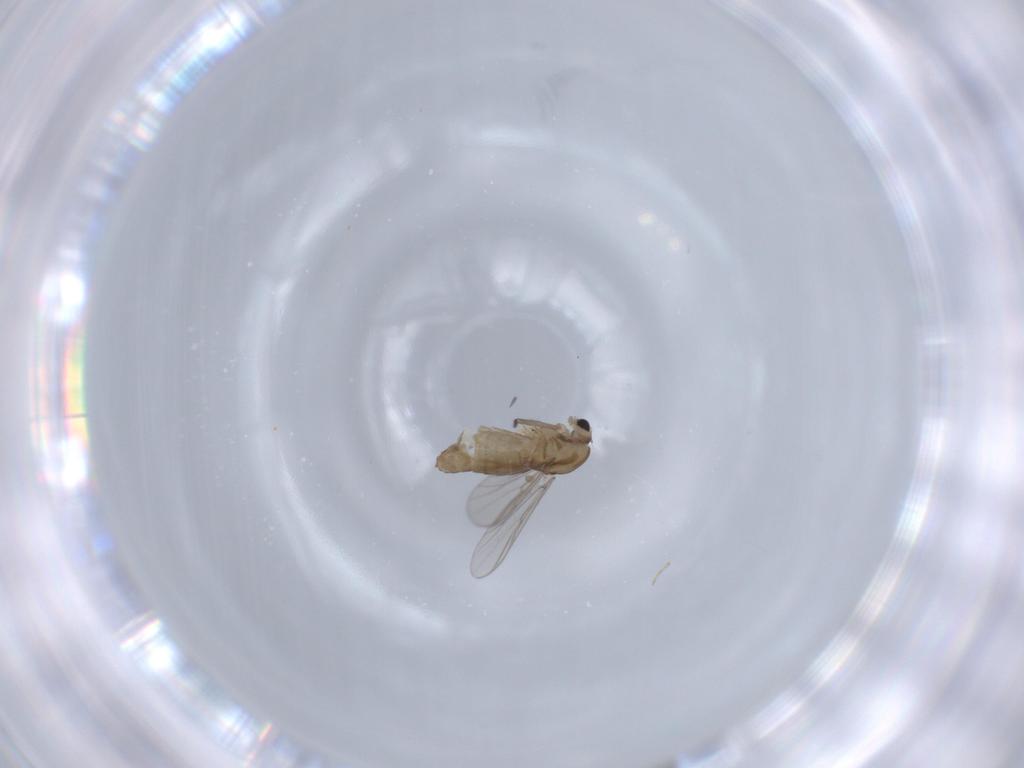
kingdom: Animalia
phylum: Arthropoda
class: Insecta
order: Diptera
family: Chironomidae
